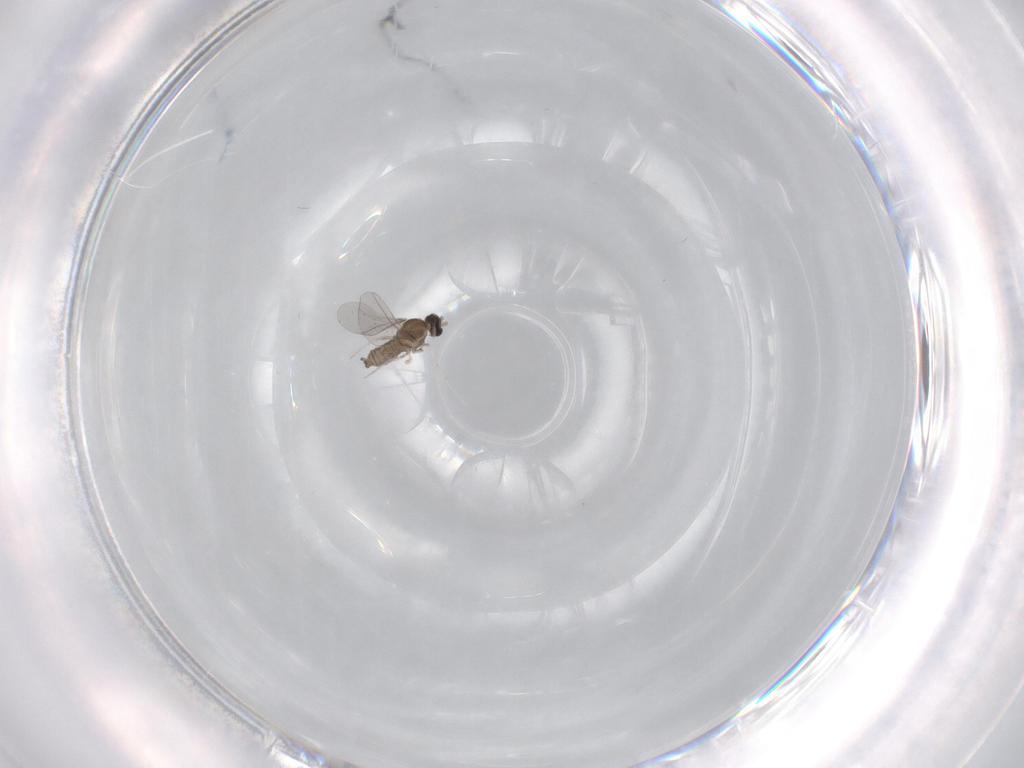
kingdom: Animalia
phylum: Arthropoda
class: Insecta
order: Diptera
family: Cecidomyiidae
